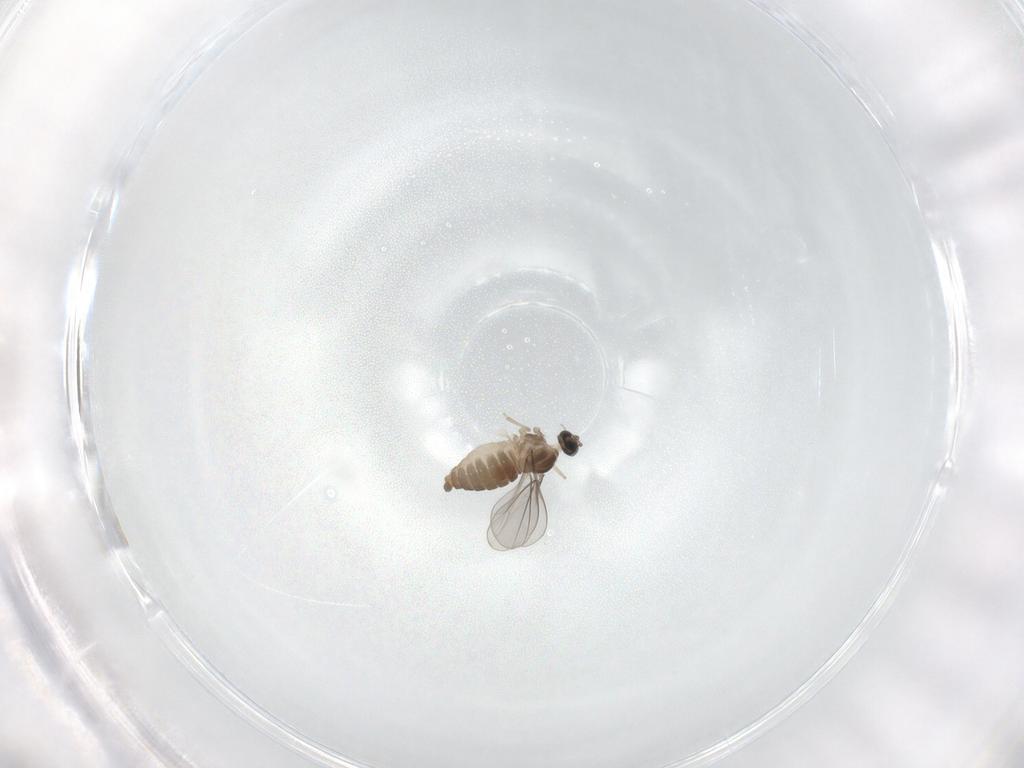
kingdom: Animalia
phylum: Arthropoda
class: Insecta
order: Diptera
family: Cecidomyiidae
